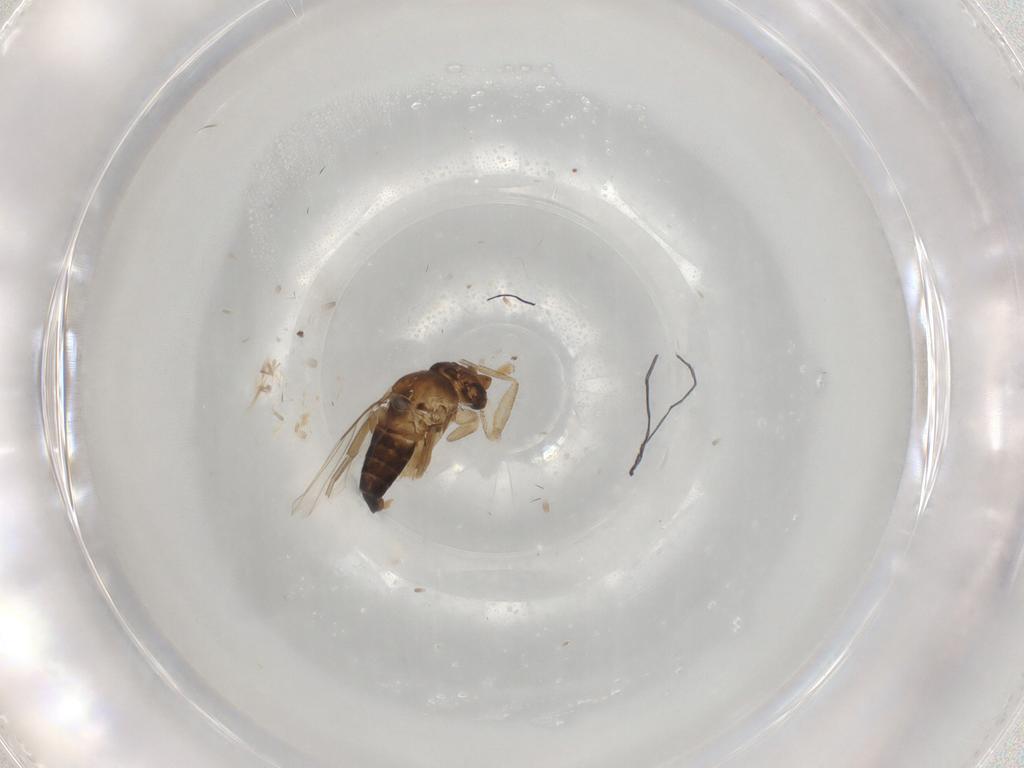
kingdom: Animalia
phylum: Arthropoda
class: Insecta
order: Diptera
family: Phoridae
